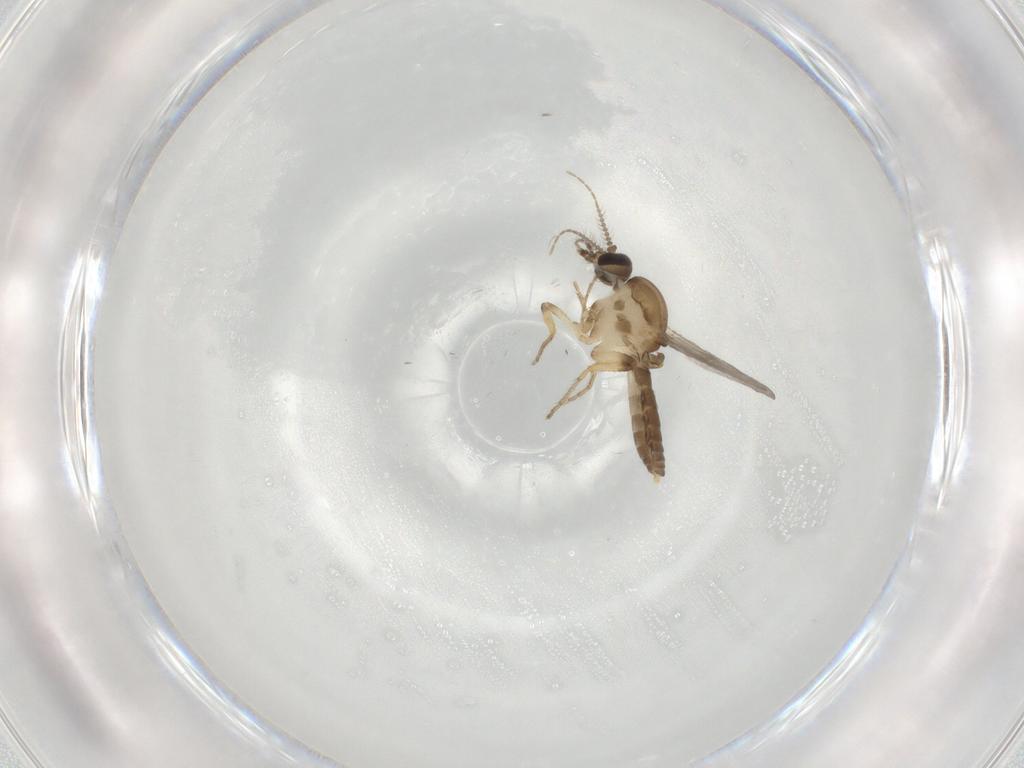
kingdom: Animalia
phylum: Arthropoda
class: Insecta
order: Diptera
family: Ceratopogonidae
